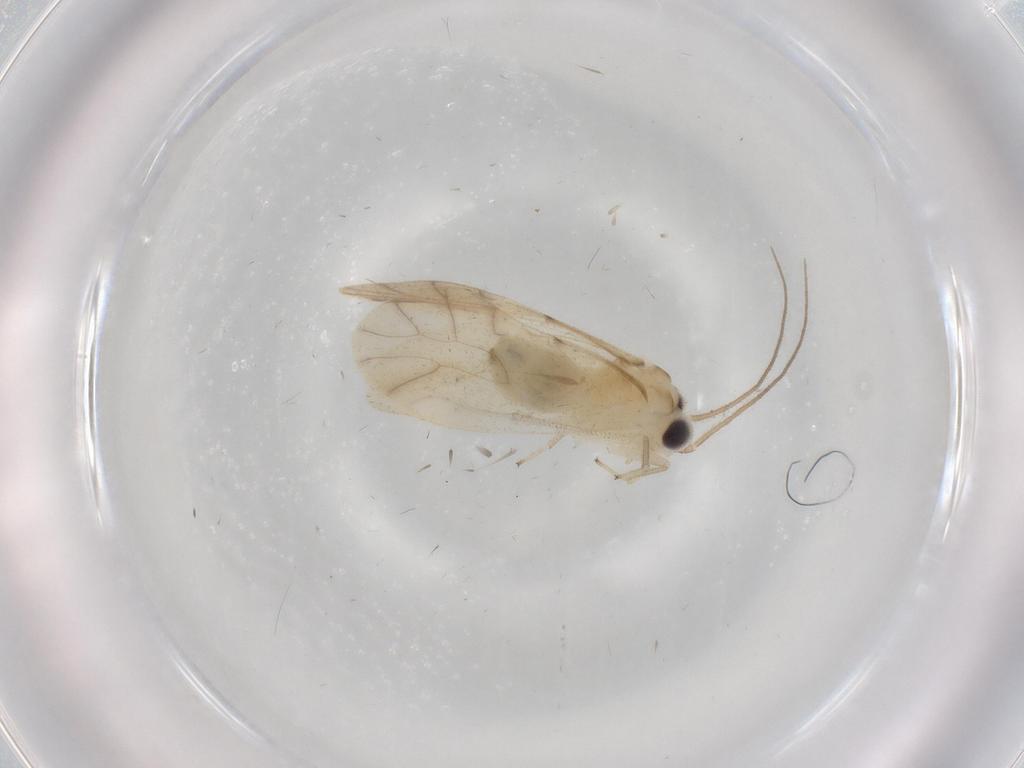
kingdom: Animalia
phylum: Arthropoda
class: Insecta
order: Psocodea
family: Caeciliusidae
